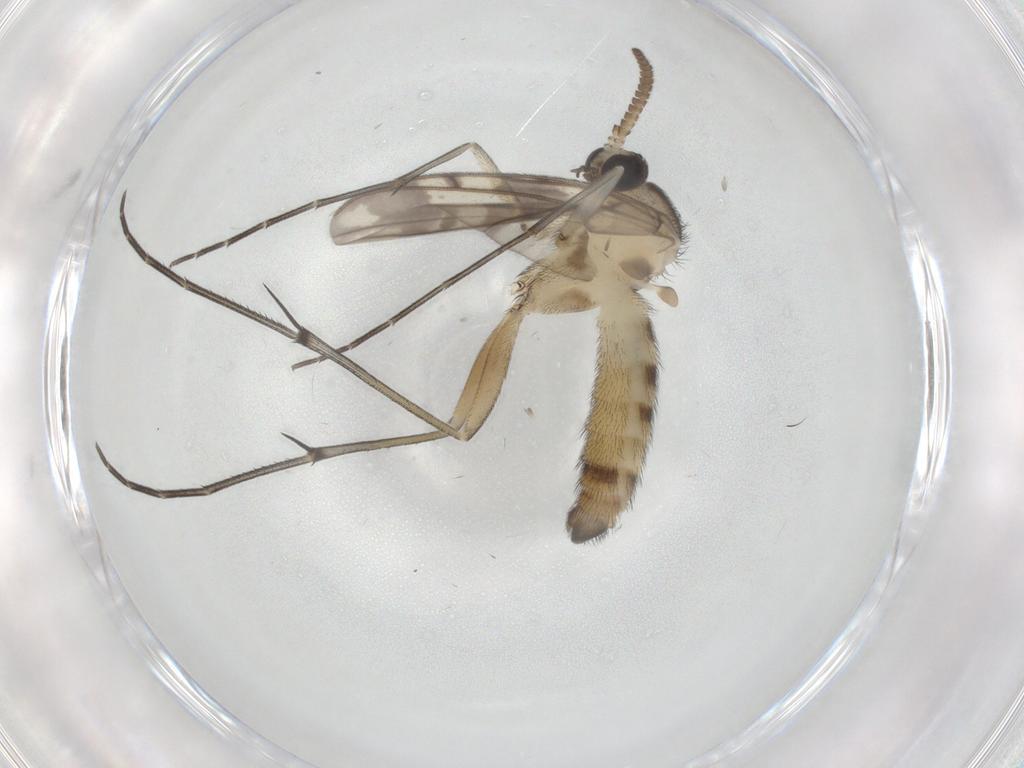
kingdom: Animalia
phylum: Arthropoda
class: Insecta
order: Diptera
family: Keroplatidae
